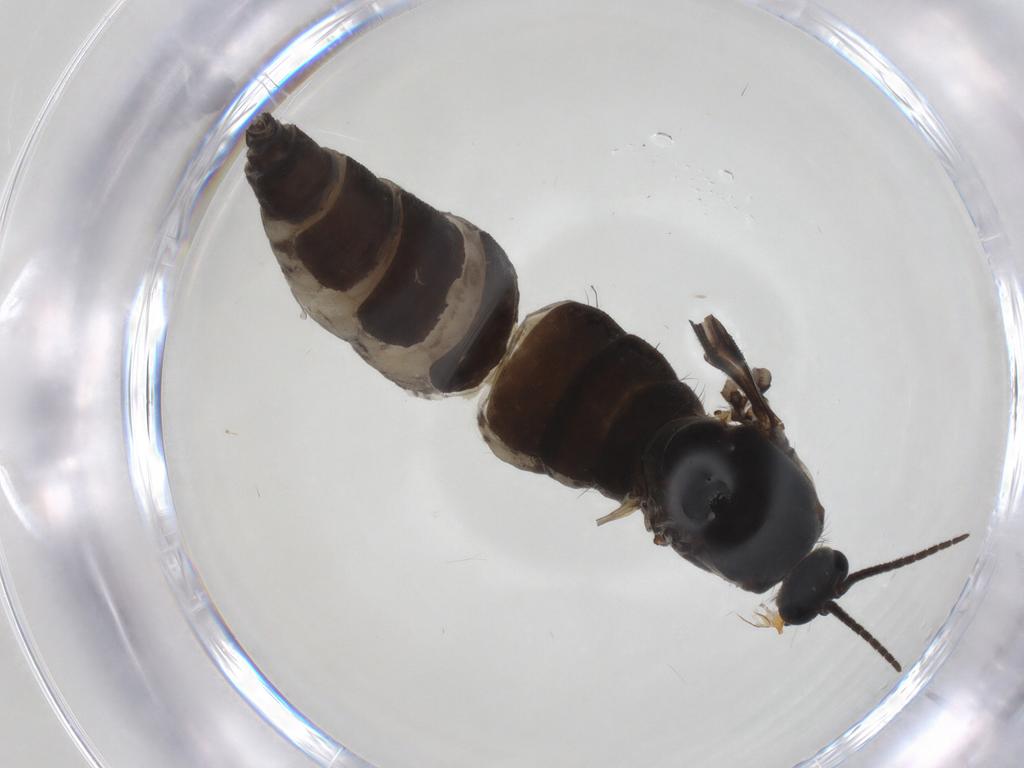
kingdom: Animalia
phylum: Arthropoda
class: Insecta
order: Diptera
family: Sciaridae
